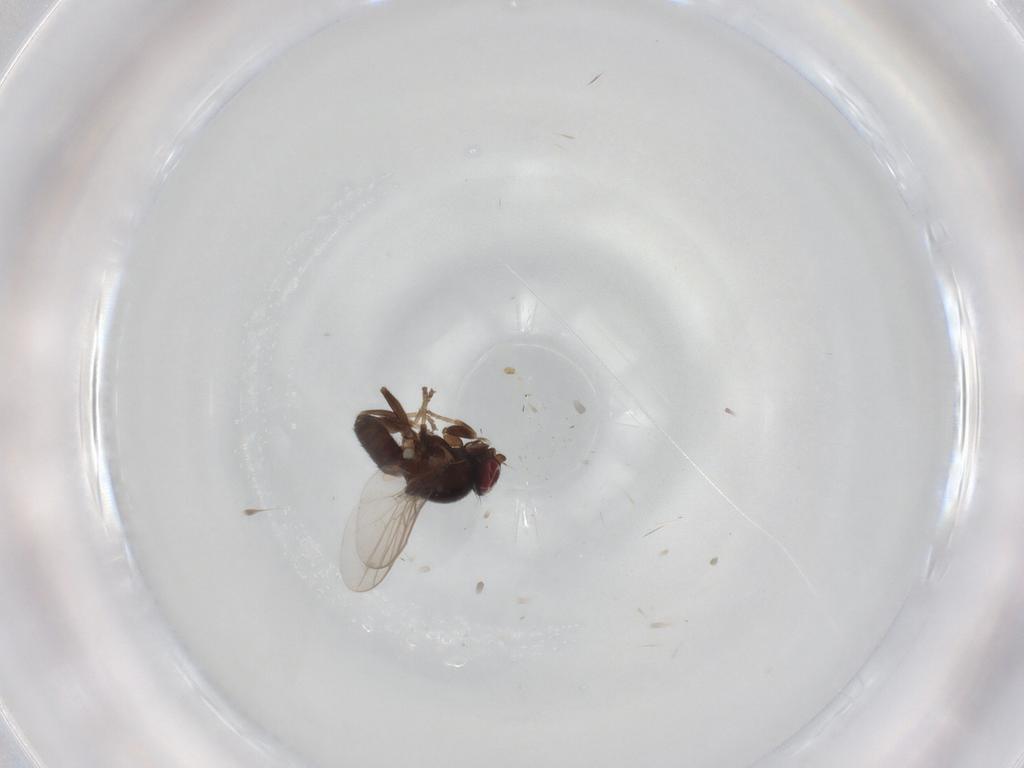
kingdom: Animalia
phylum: Arthropoda
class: Insecta
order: Diptera
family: Chloropidae
